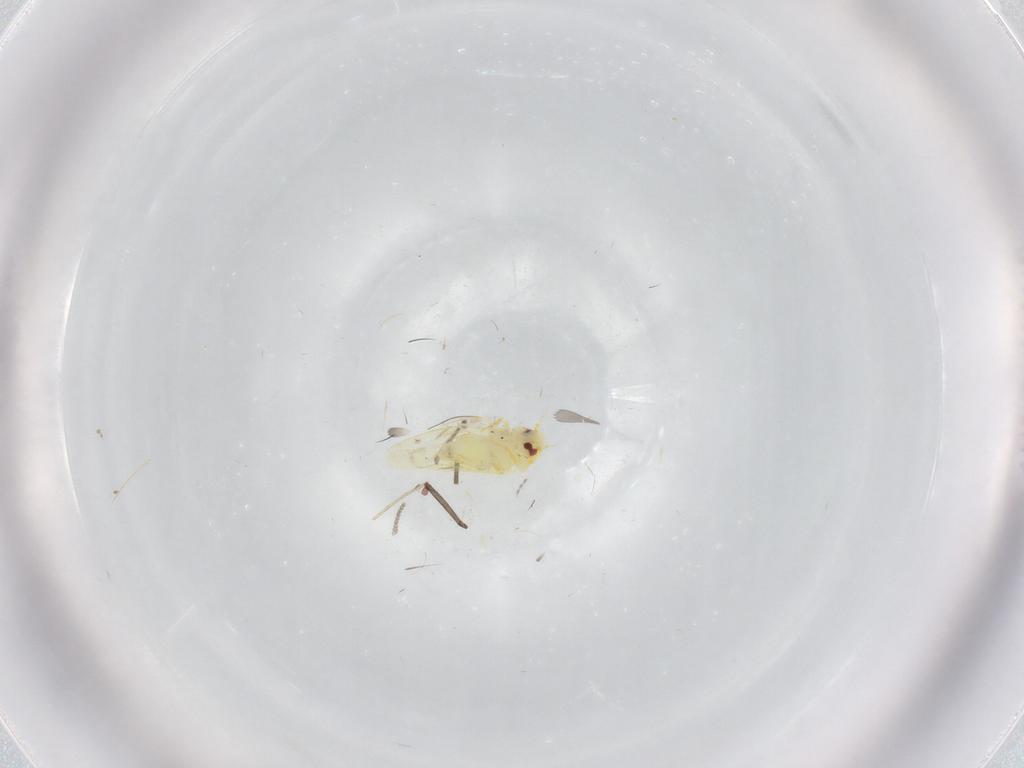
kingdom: Animalia
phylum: Arthropoda
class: Insecta
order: Hemiptera
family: Aleyrodidae
